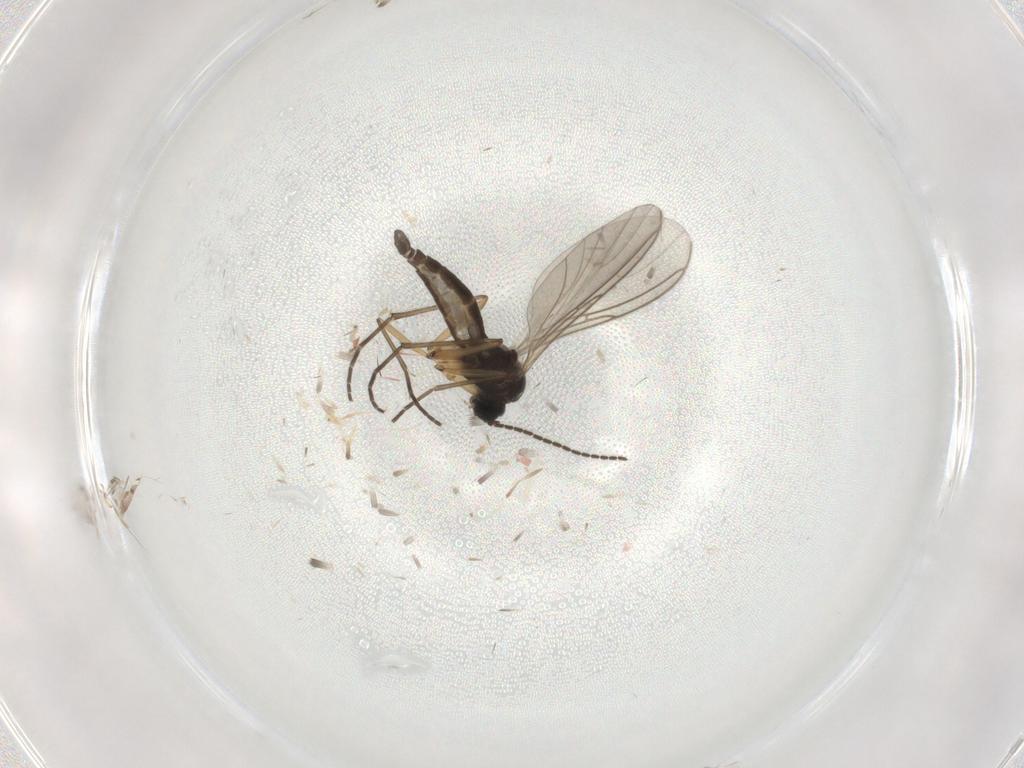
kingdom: Animalia
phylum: Arthropoda
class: Insecta
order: Diptera
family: Sciaridae
